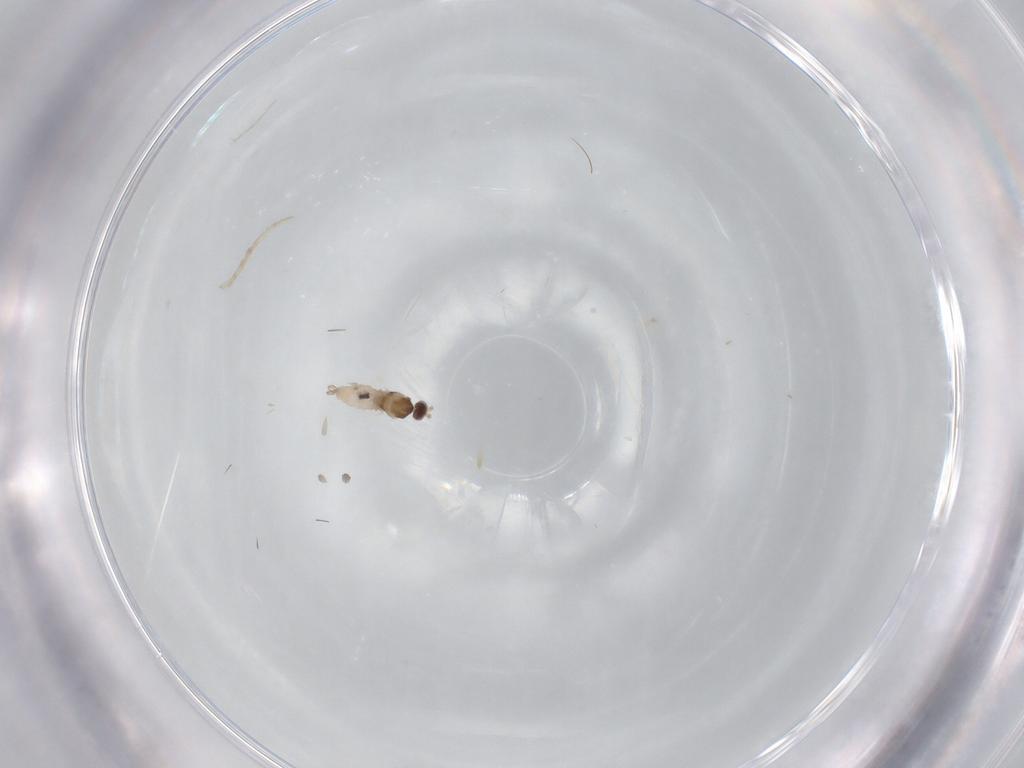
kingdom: Animalia
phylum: Arthropoda
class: Insecta
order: Diptera
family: Cecidomyiidae
